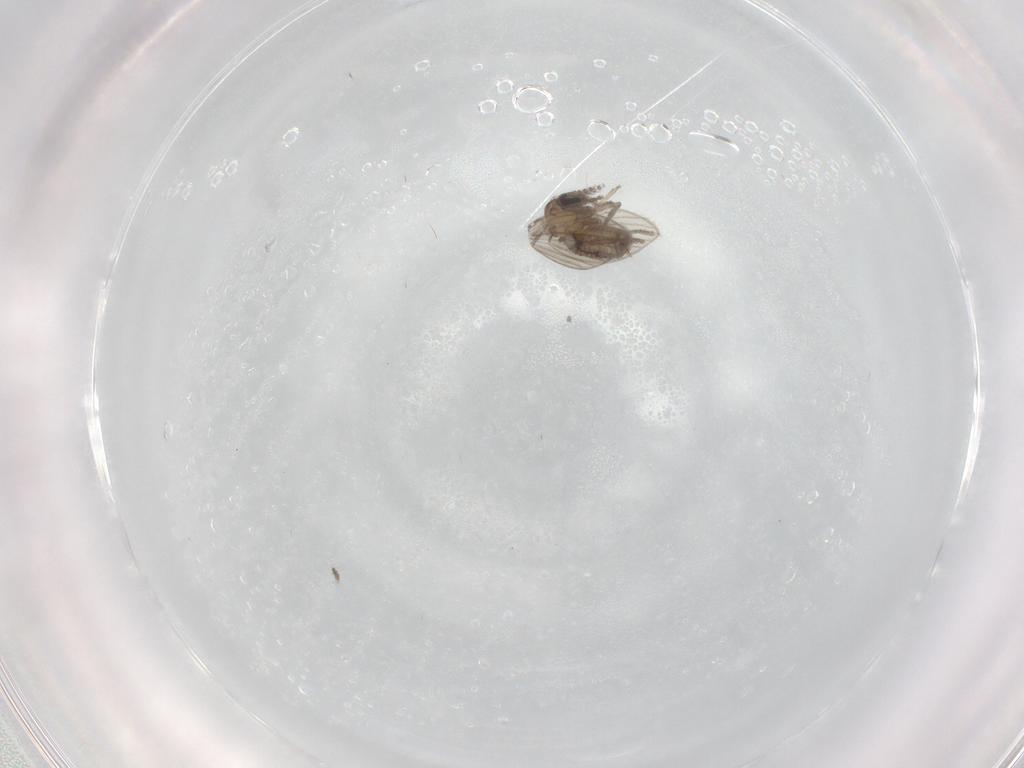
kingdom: Animalia
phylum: Arthropoda
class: Insecta
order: Diptera
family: Psychodidae
